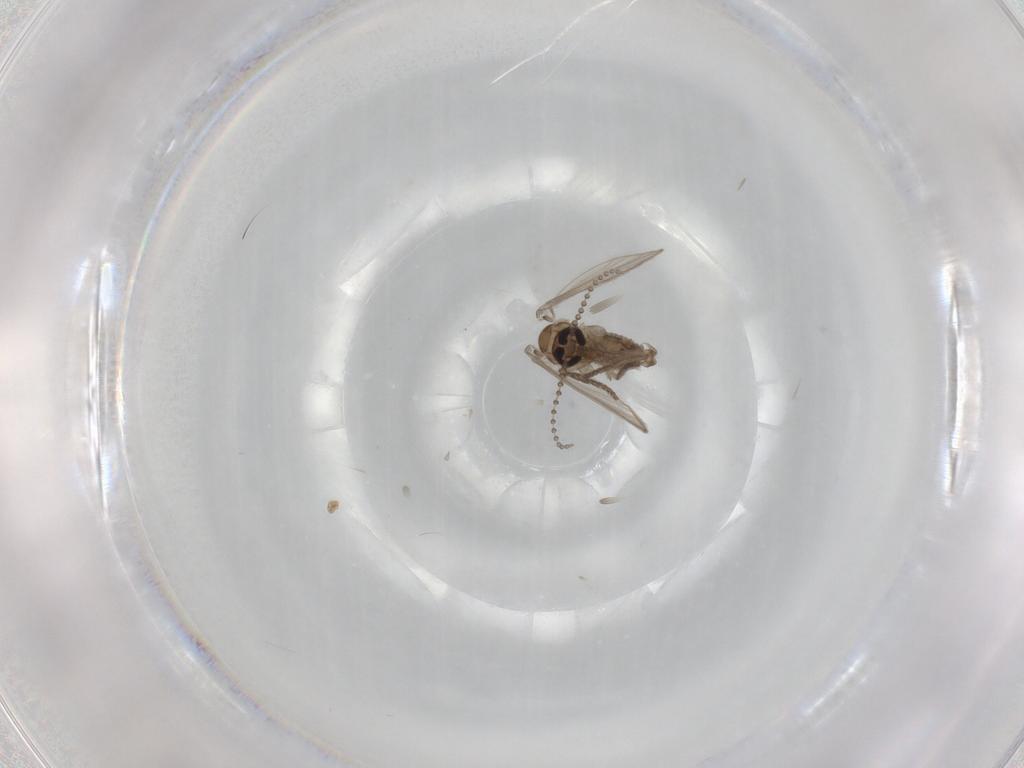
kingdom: Animalia
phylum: Arthropoda
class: Insecta
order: Diptera
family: Psychodidae
